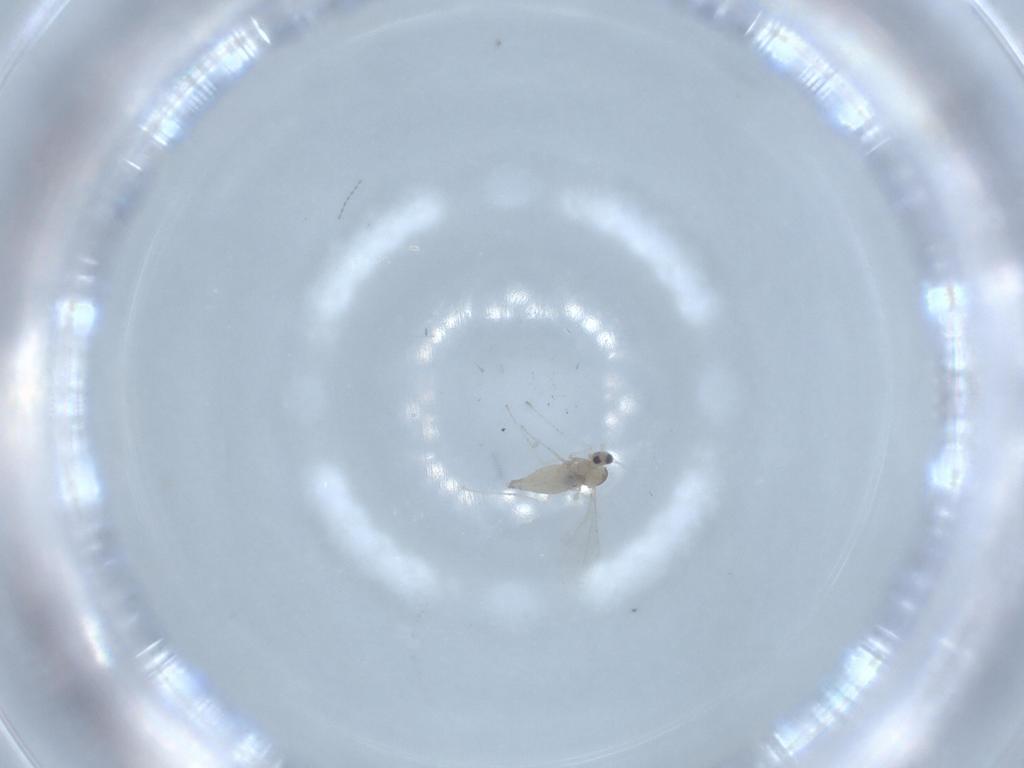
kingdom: Animalia
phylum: Arthropoda
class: Insecta
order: Diptera
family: Cecidomyiidae
